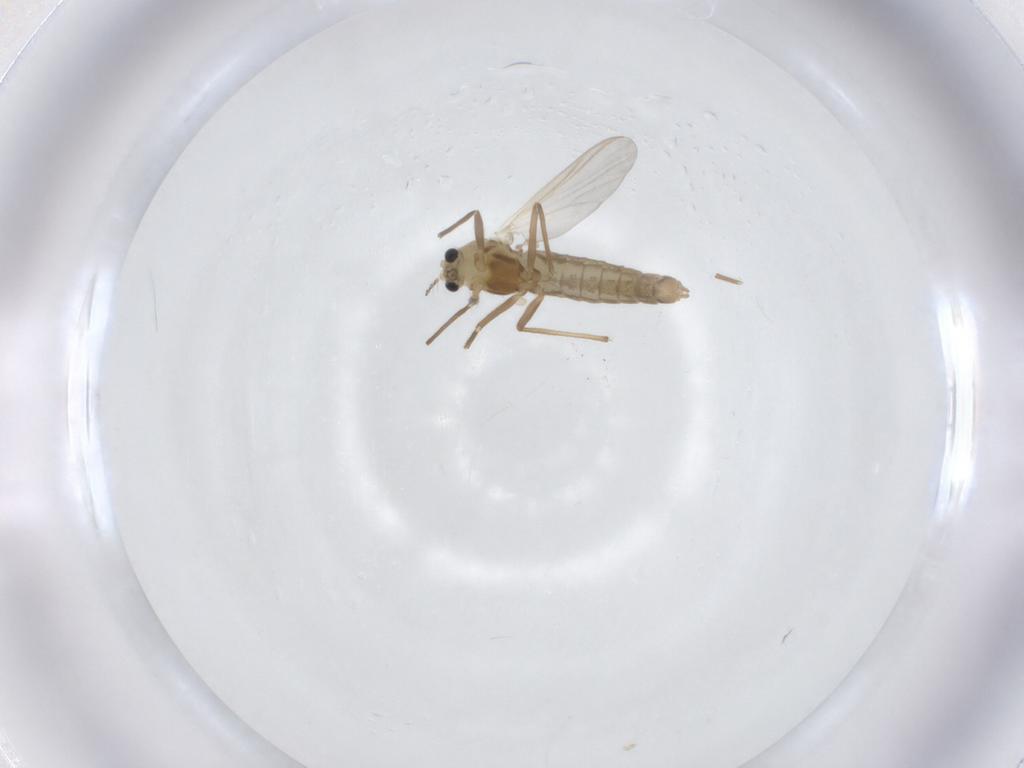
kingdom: Animalia
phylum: Arthropoda
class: Insecta
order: Diptera
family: Chironomidae
